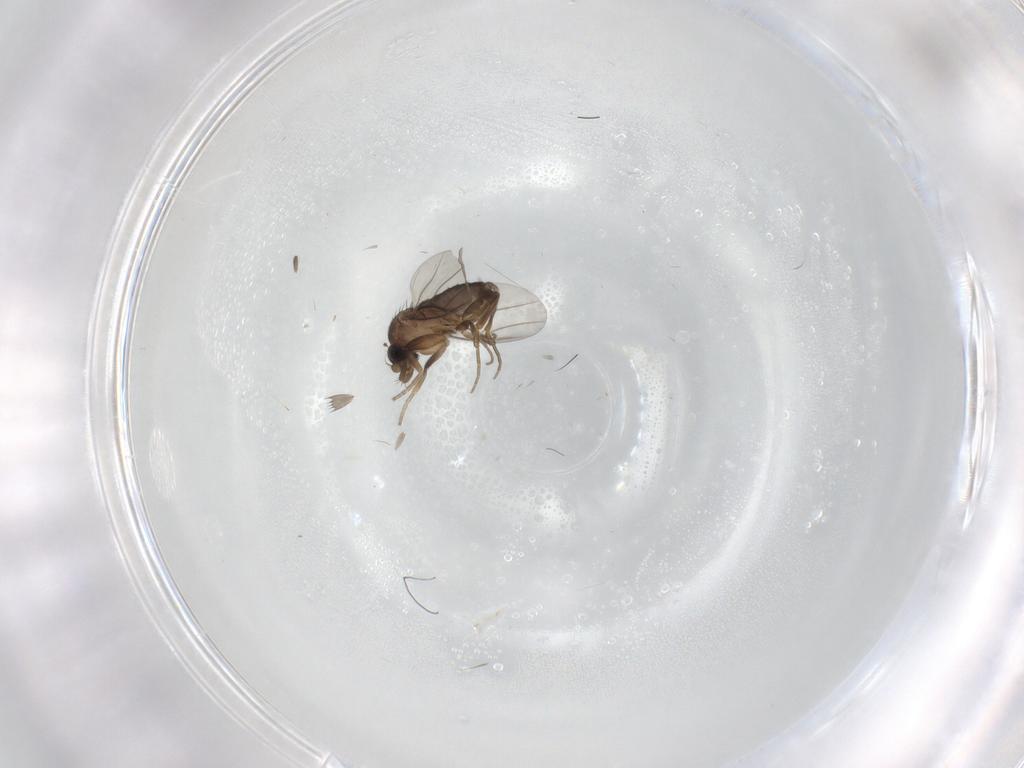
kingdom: Animalia
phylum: Arthropoda
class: Insecta
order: Diptera
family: Phoridae
